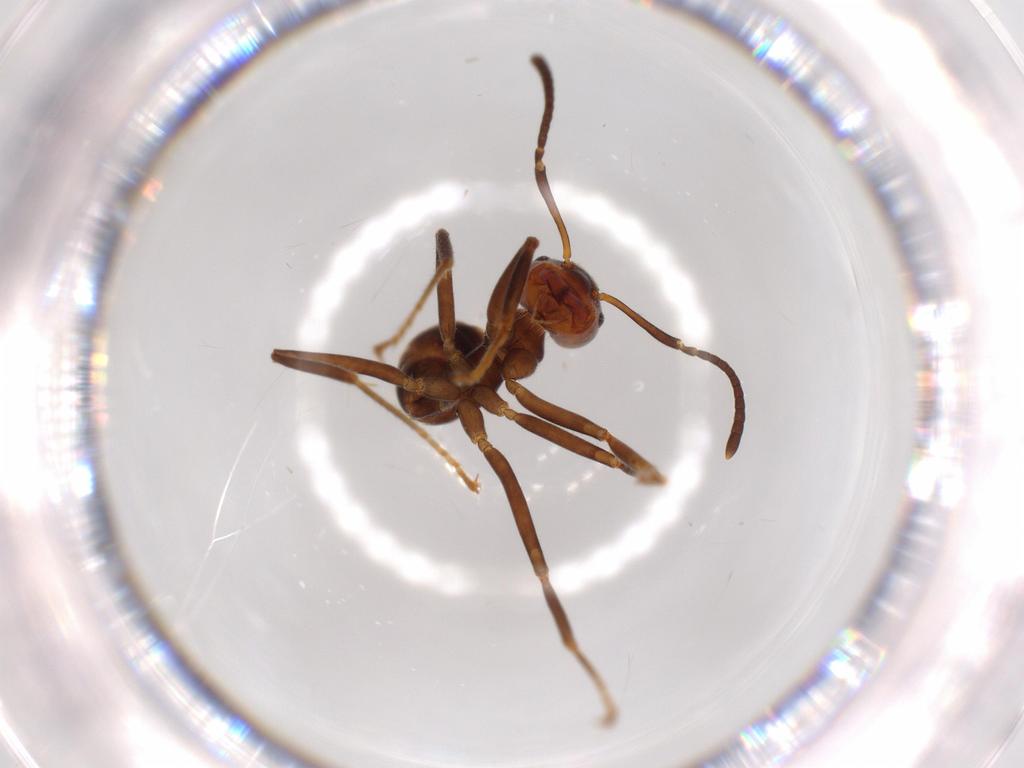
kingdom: Animalia
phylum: Arthropoda
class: Insecta
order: Hymenoptera
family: Formicidae
